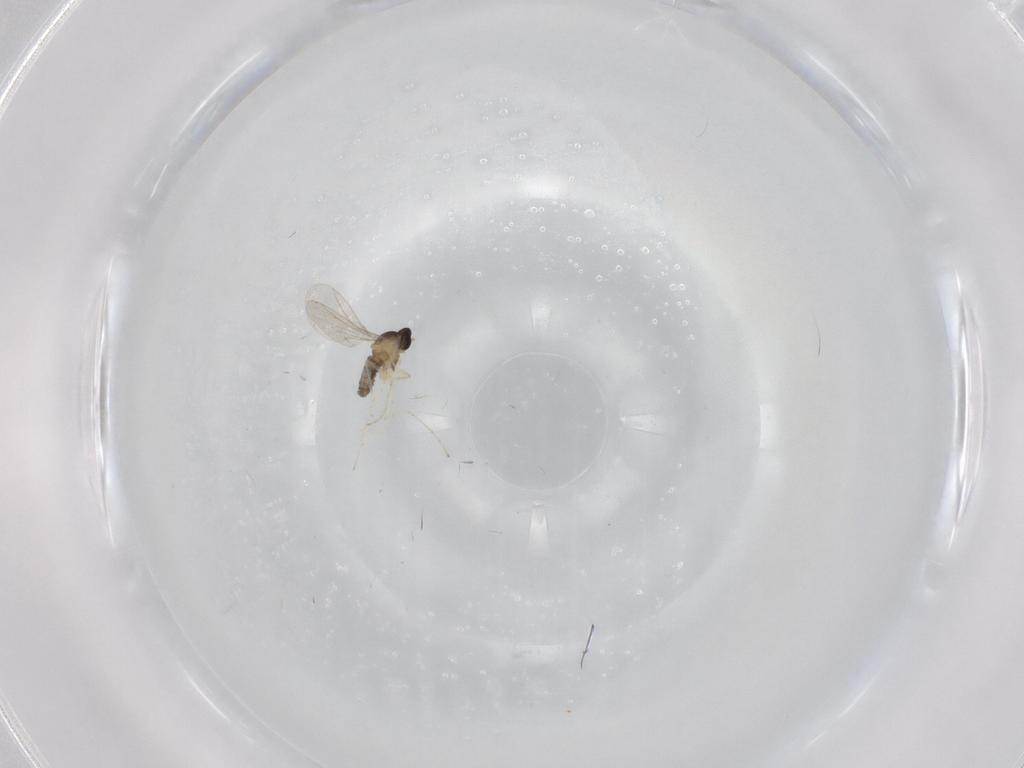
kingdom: Animalia
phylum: Arthropoda
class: Insecta
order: Diptera
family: Cecidomyiidae
